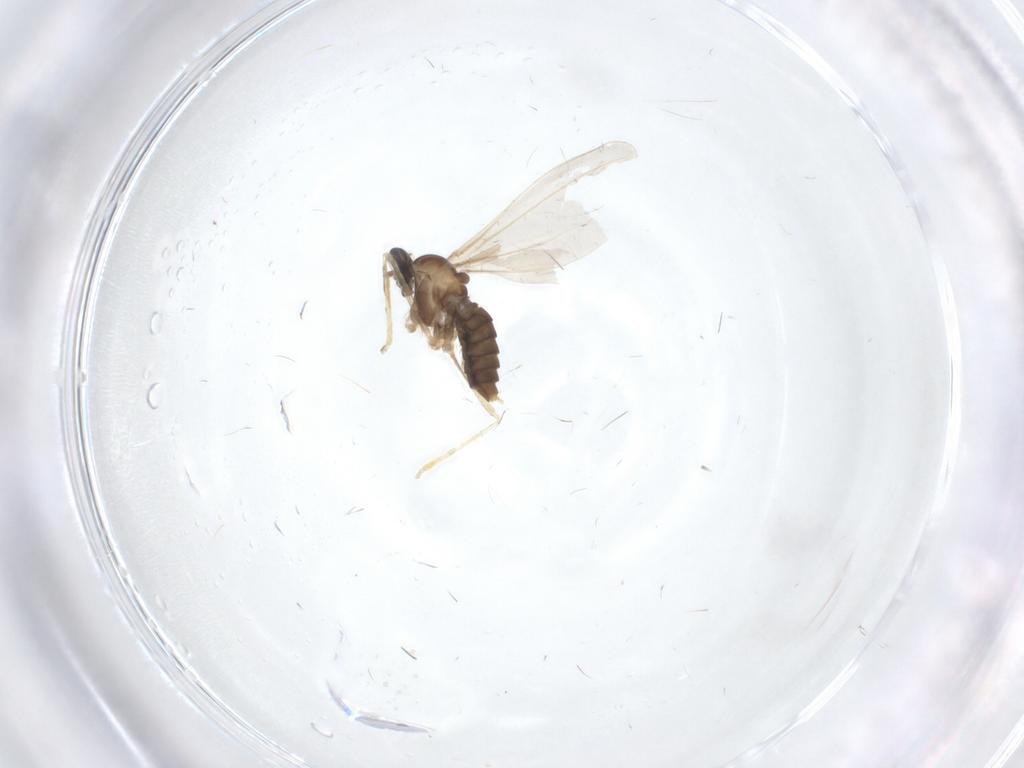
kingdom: Animalia
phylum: Arthropoda
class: Insecta
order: Diptera
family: Cecidomyiidae
